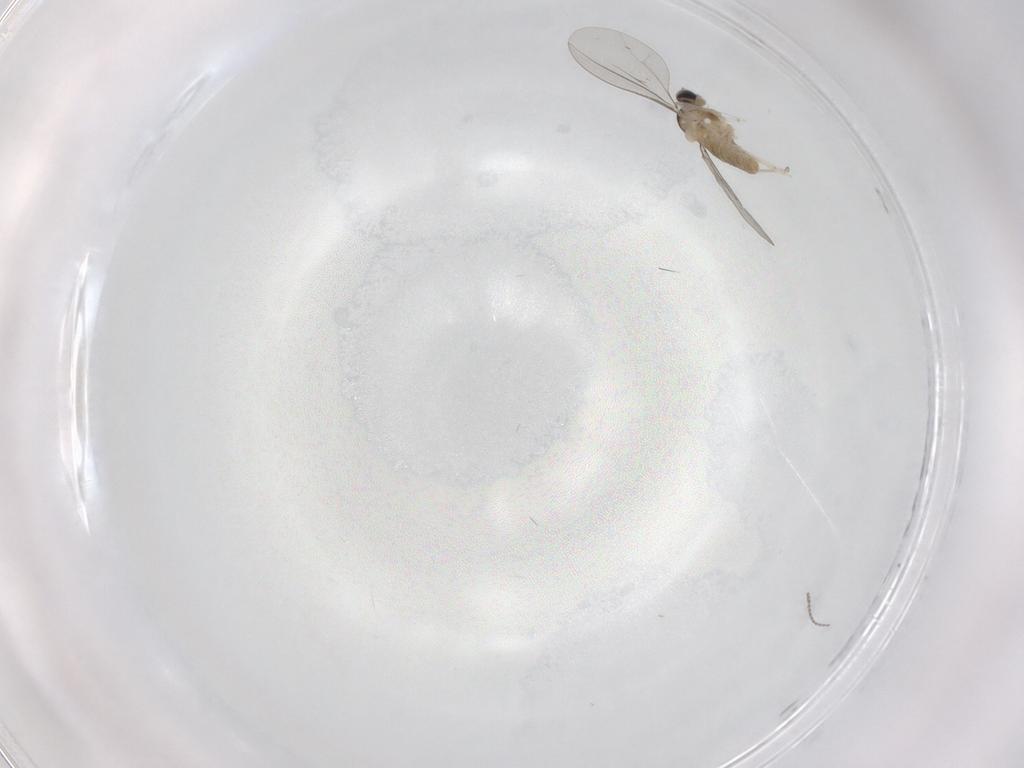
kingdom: Animalia
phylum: Arthropoda
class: Insecta
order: Diptera
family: Cecidomyiidae
